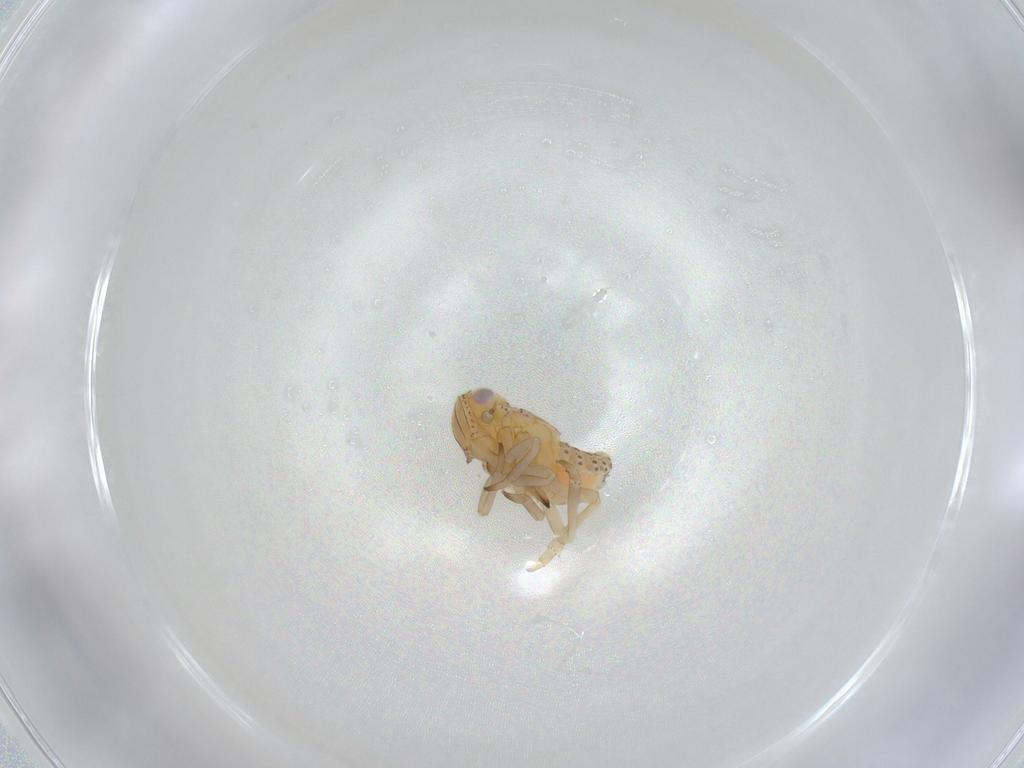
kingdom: Animalia
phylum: Arthropoda
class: Insecta
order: Hemiptera
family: Tropiduchidae
